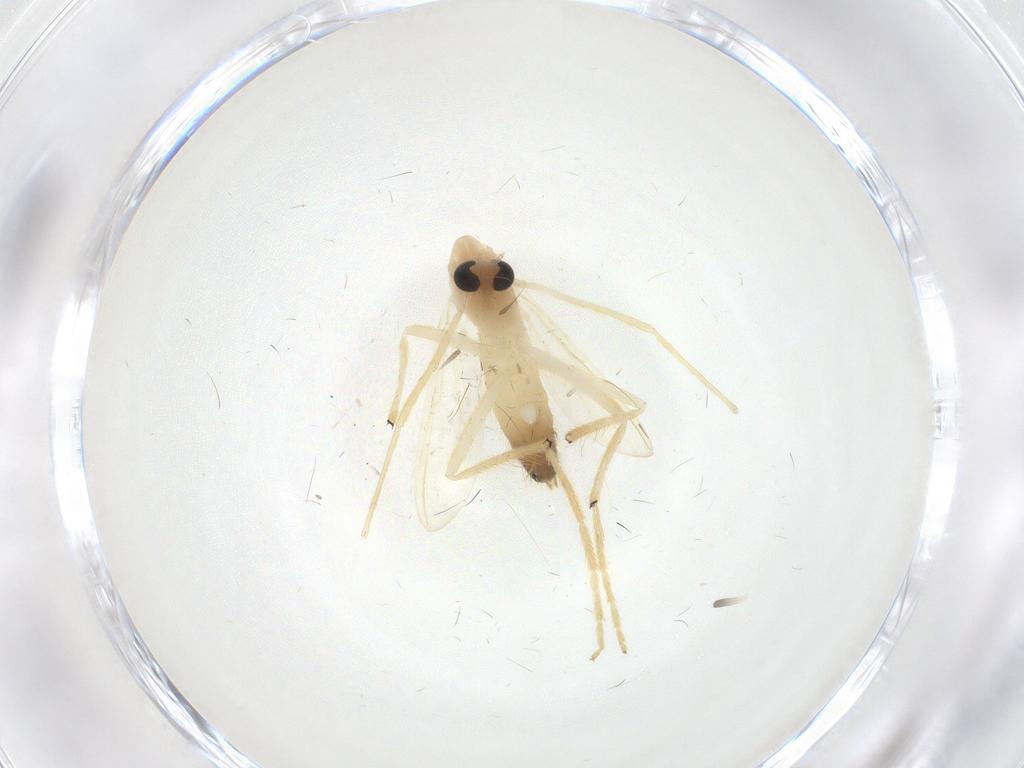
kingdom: Animalia
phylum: Arthropoda
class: Insecta
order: Diptera
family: Chironomidae
